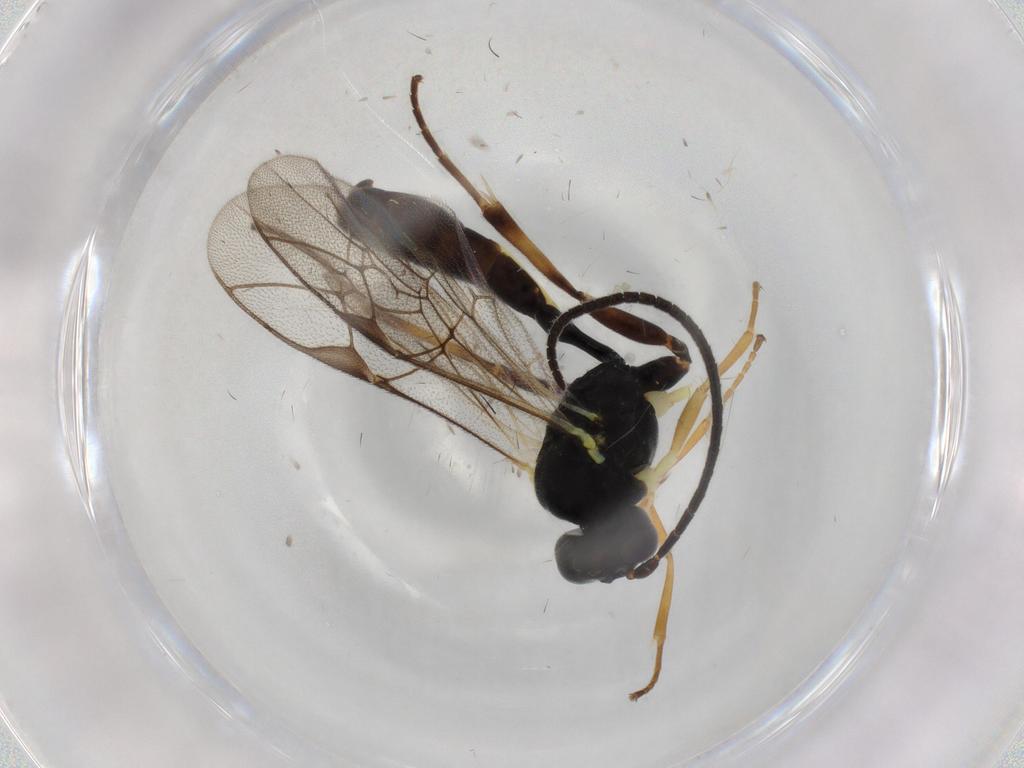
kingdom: Animalia
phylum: Arthropoda
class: Insecta
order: Hymenoptera
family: Ichneumonidae
